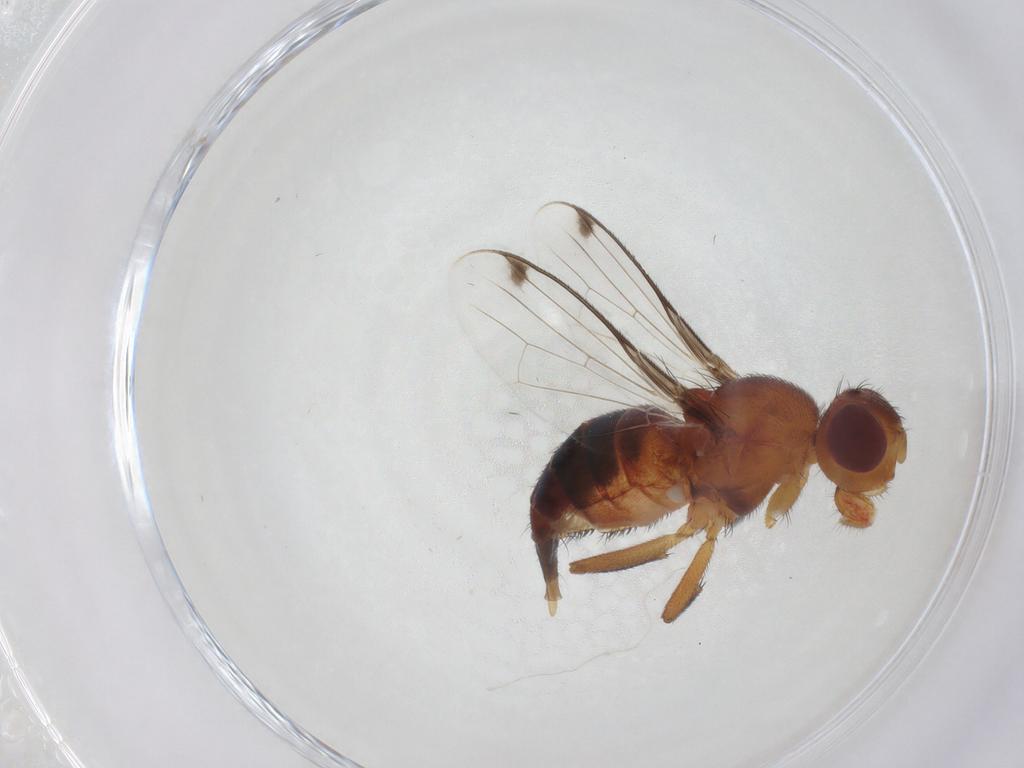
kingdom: Animalia
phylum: Arthropoda
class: Insecta
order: Diptera
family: Richardiidae
